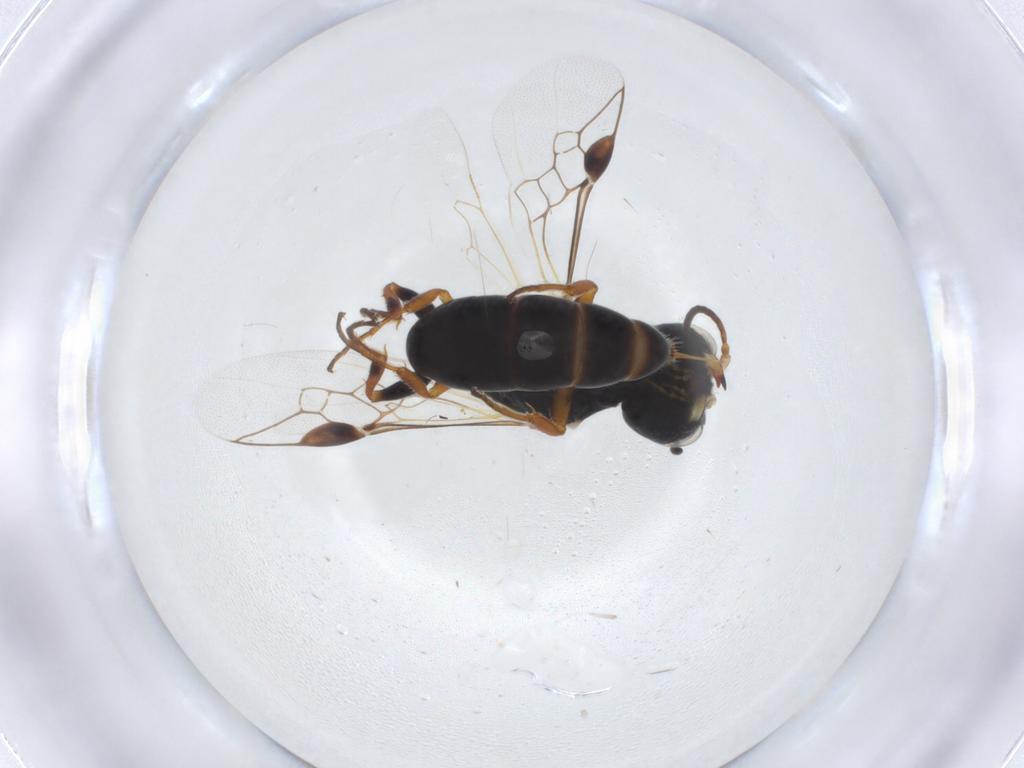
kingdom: Animalia
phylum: Arthropoda
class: Insecta
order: Hymenoptera
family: Pemphredonidae
